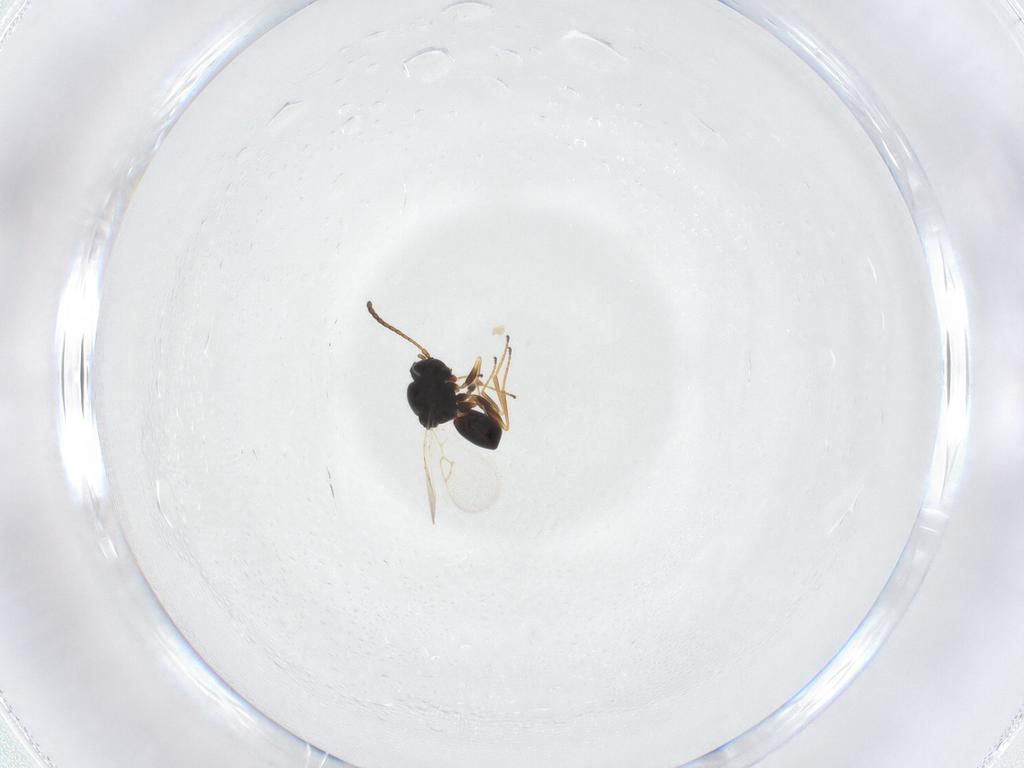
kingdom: Animalia
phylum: Arthropoda
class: Insecta
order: Hymenoptera
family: Figitidae
